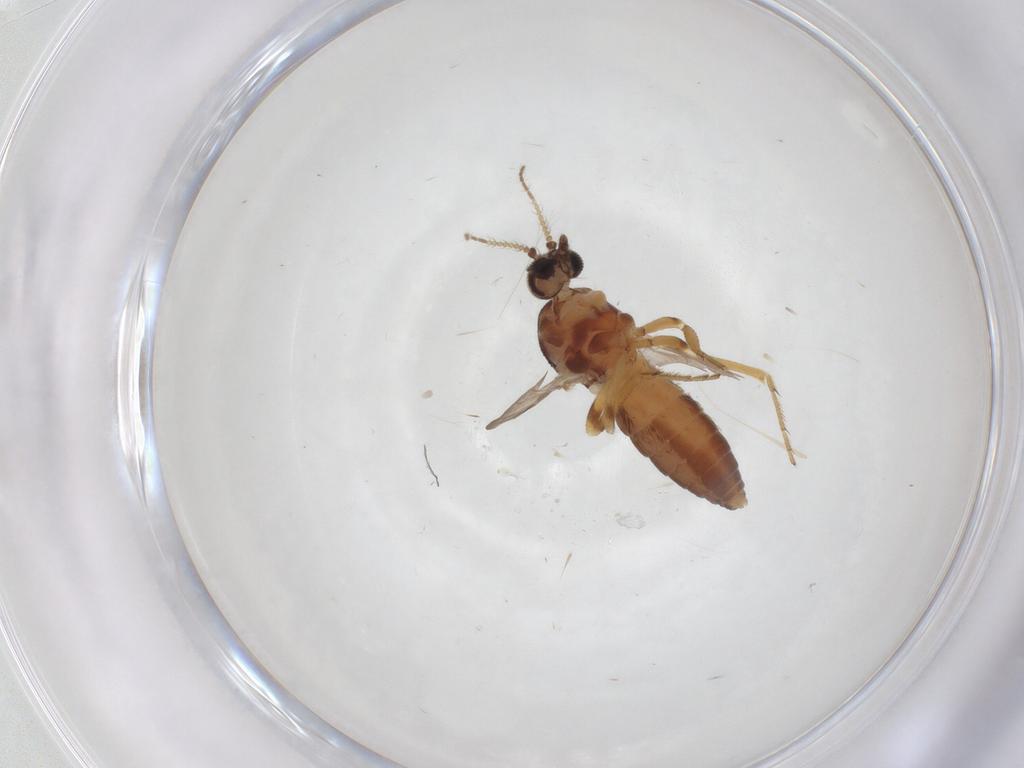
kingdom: Animalia
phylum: Arthropoda
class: Insecta
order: Diptera
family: Ceratopogonidae
